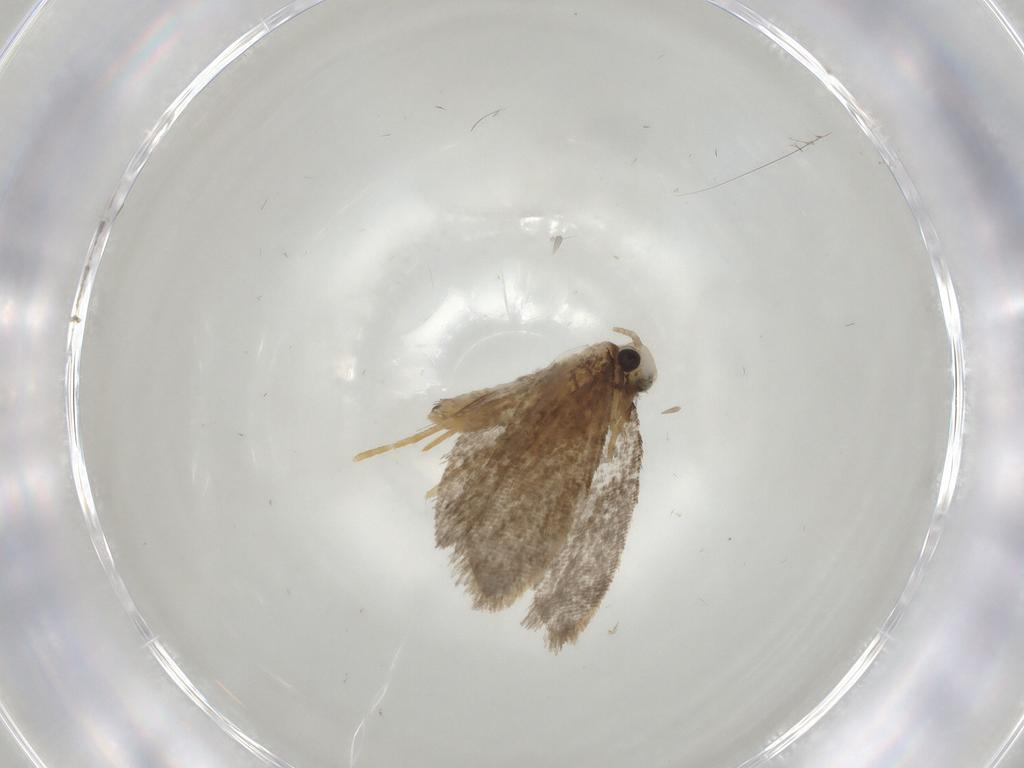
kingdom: Animalia
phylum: Arthropoda
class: Insecta
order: Lepidoptera
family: Psychidae
